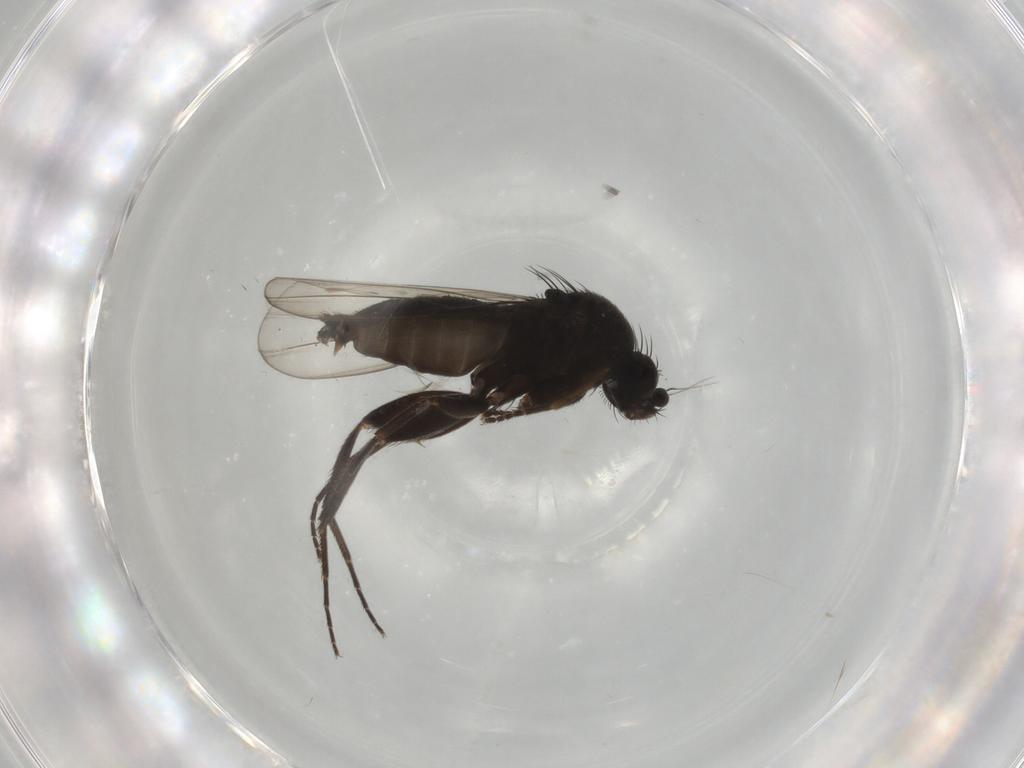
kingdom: Animalia
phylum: Arthropoda
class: Insecta
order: Diptera
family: Phoridae
